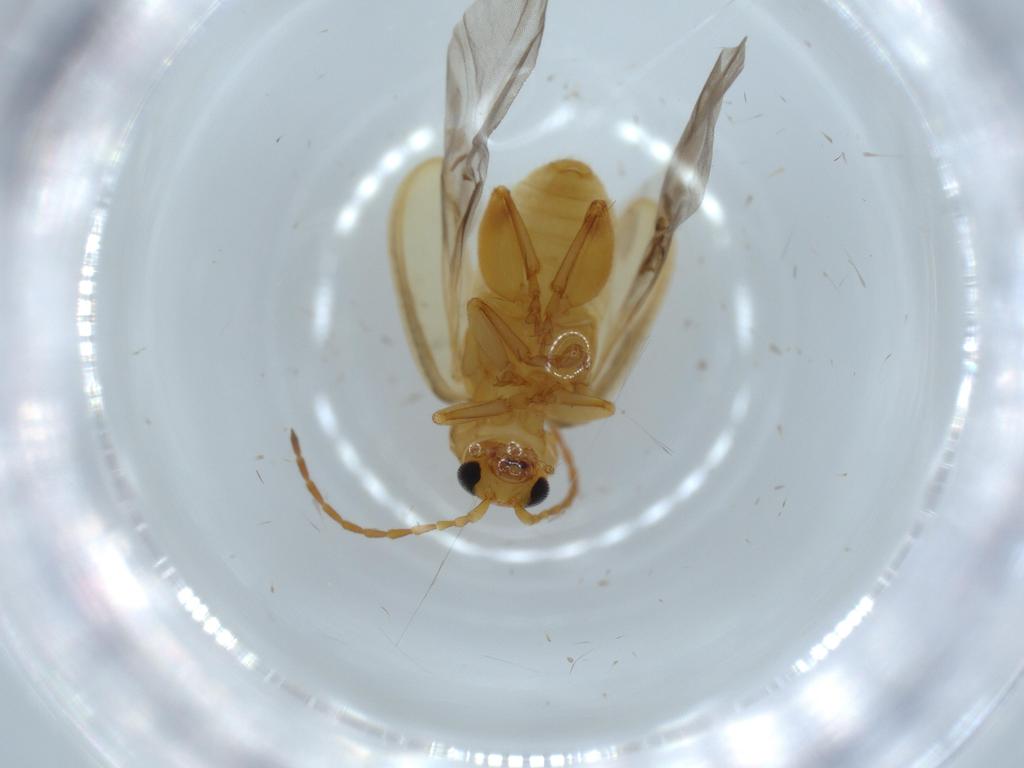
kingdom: Animalia
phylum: Arthropoda
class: Insecta
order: Coleoptera
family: Chrysomelidae
